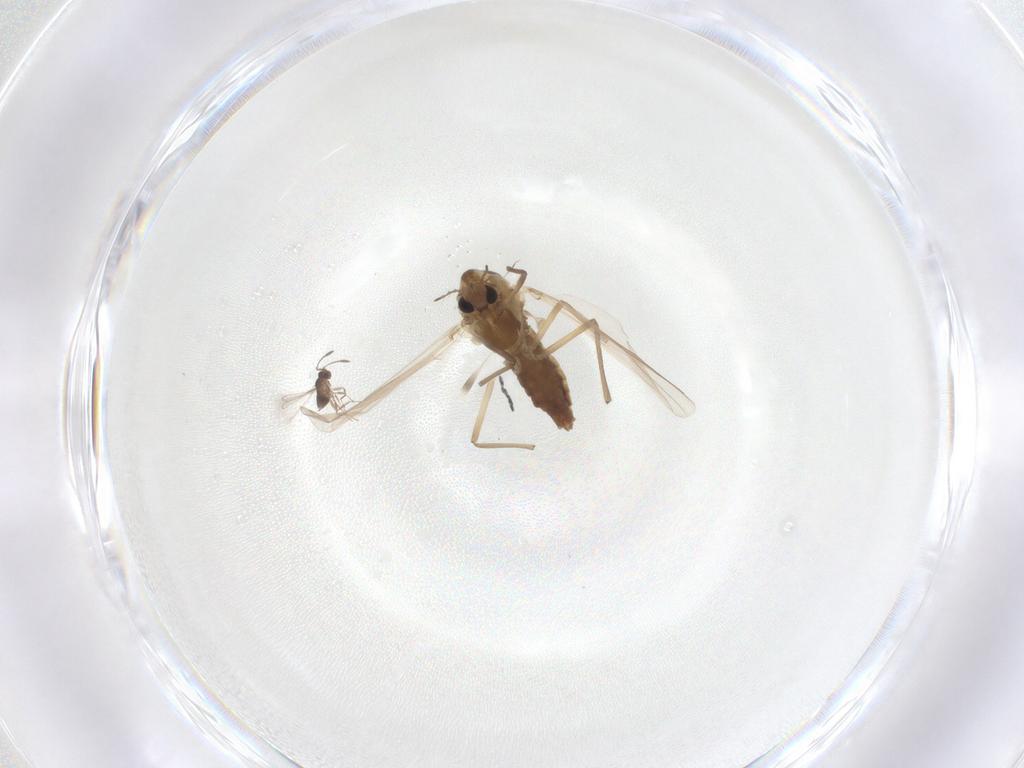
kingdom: Animalia
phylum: Arthropoda
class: Insecta
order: Diptera
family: Chironomidae
